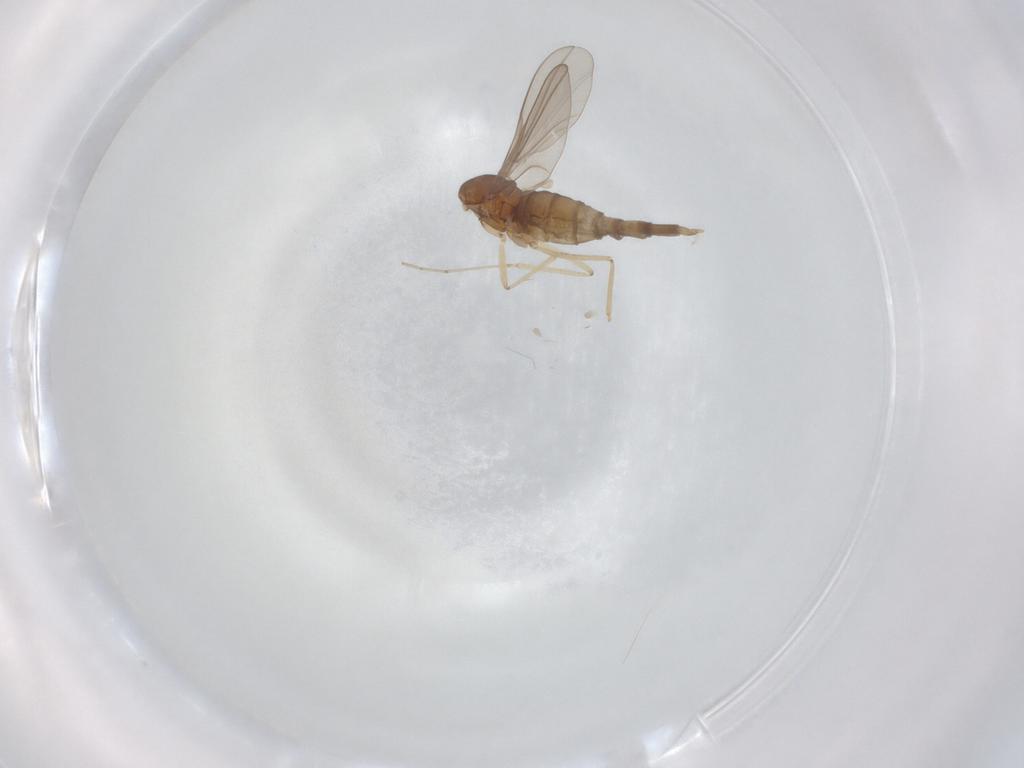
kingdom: Animalia
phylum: Arthropoda
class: Insecta
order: Diptera
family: Cecidomyiidae
